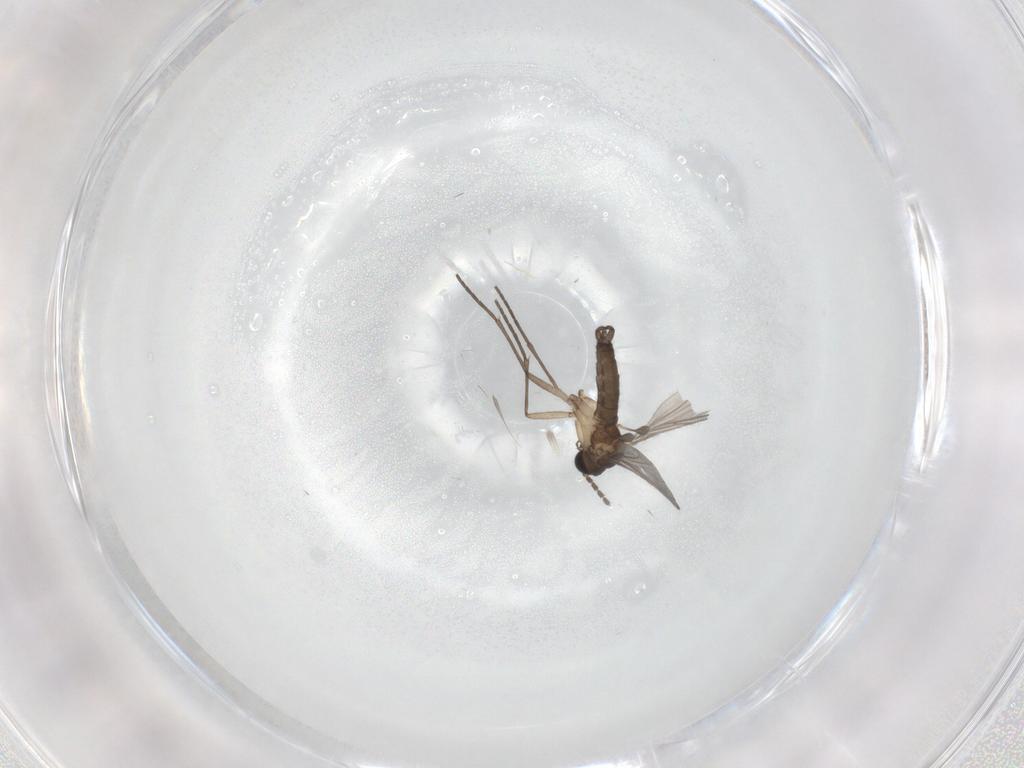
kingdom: Animalia
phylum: Arthropoda
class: Insecta
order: Diptera
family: Sciaridae
